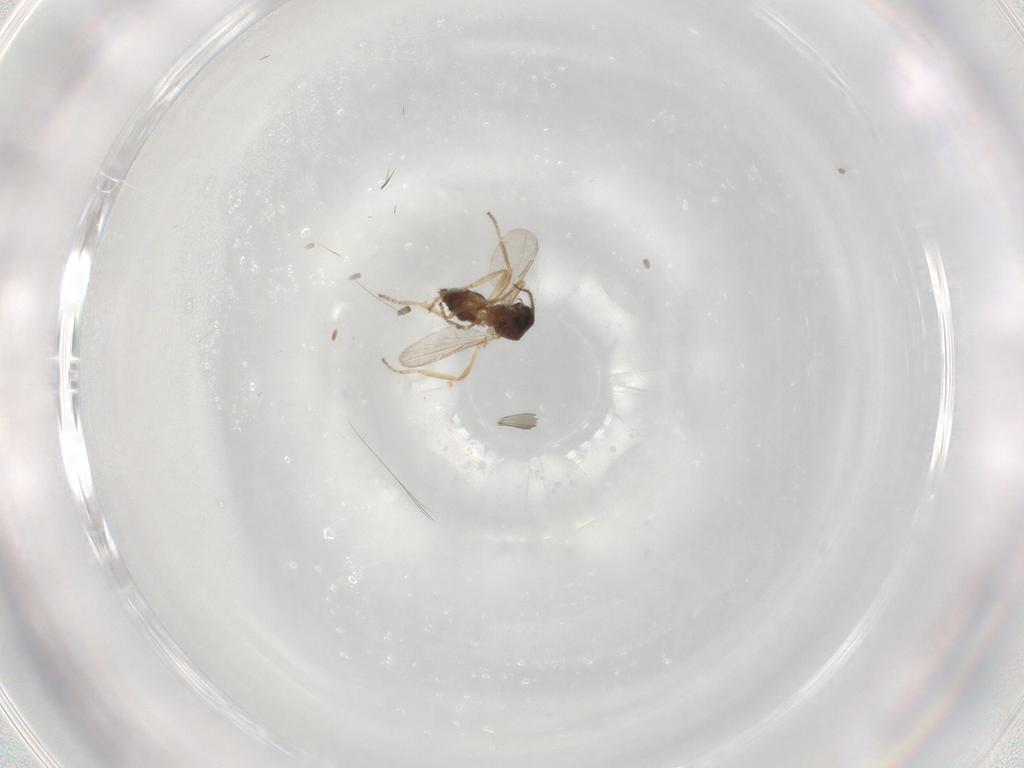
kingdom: Animalia
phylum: Arthropoda
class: Insecta
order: Diptera
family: Ceratopogonidae
